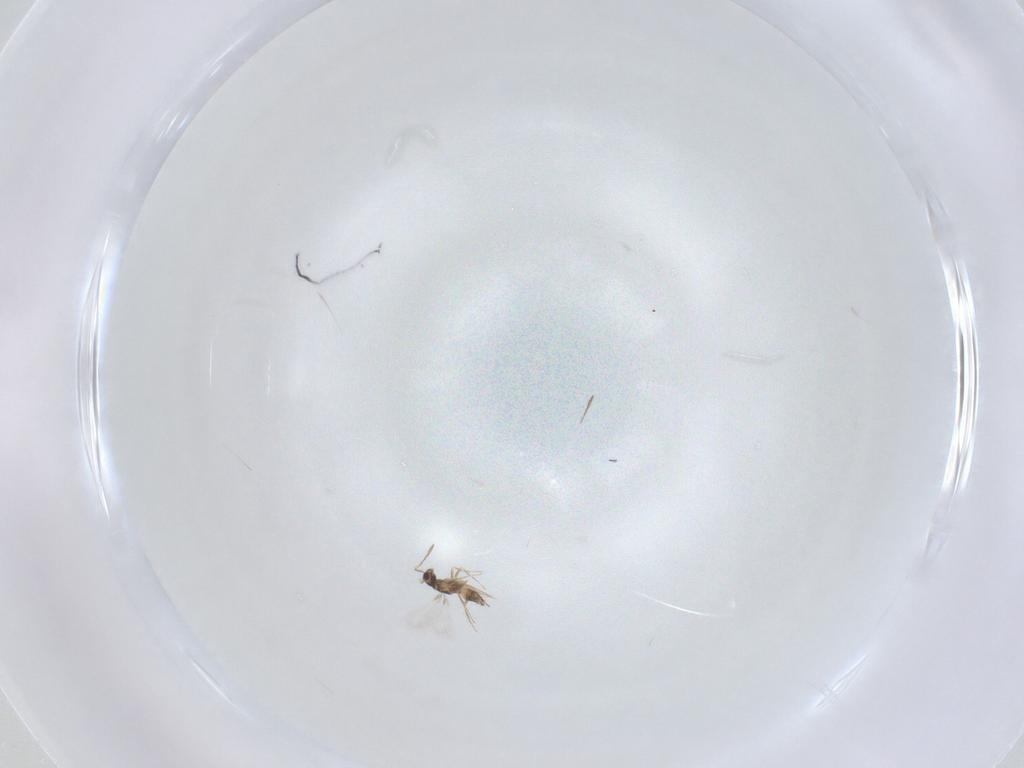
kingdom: Animalia
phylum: Arthropoda
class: Insecta
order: Hymenoptera
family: Mymaridae
